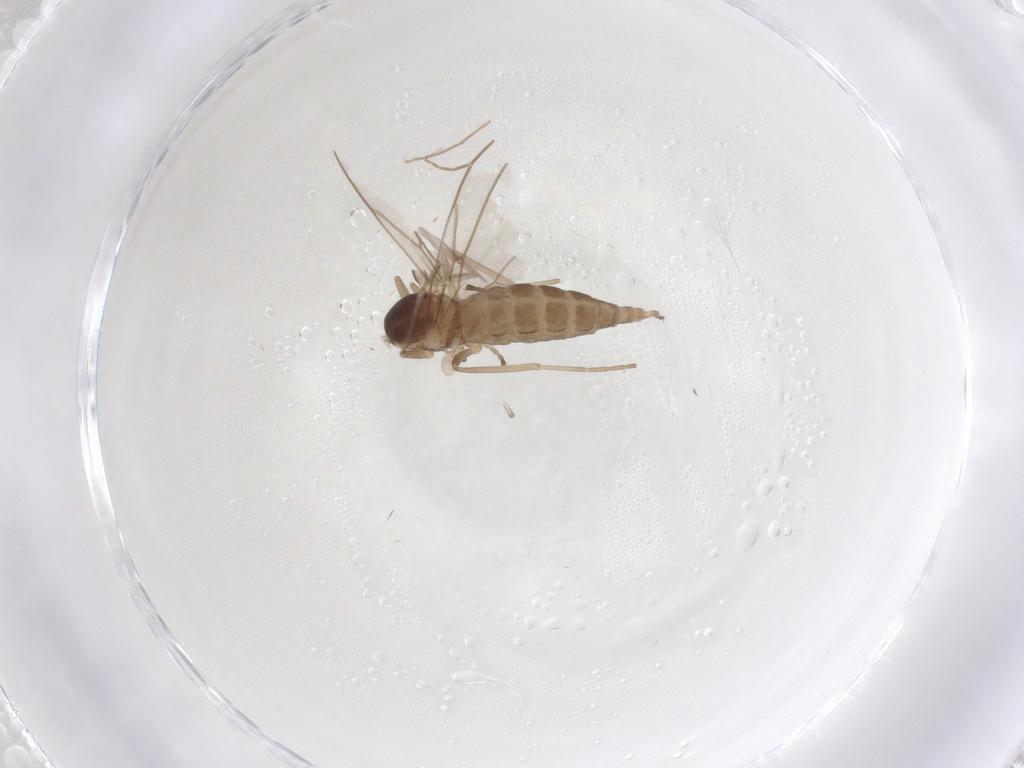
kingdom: Animalia
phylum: Arthropoda
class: Insecta
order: Diptera
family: Cecidomyiidae
